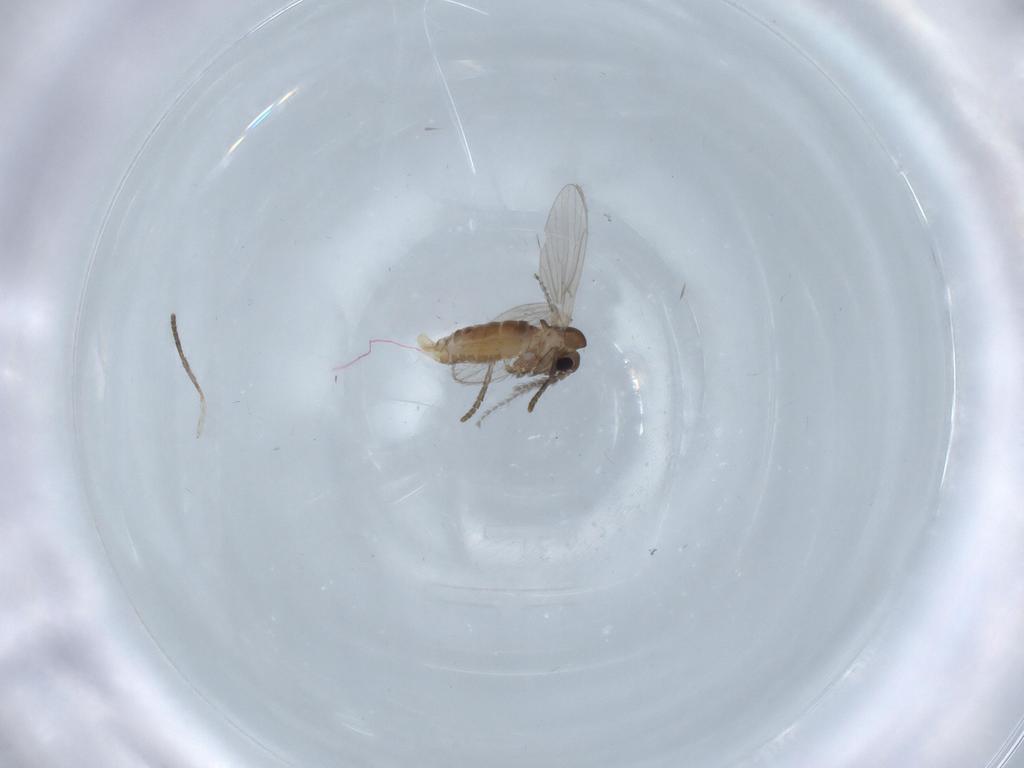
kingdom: Animalia
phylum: Arthropoda
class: Insecta
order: Diptera
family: Cecidomyiidae
